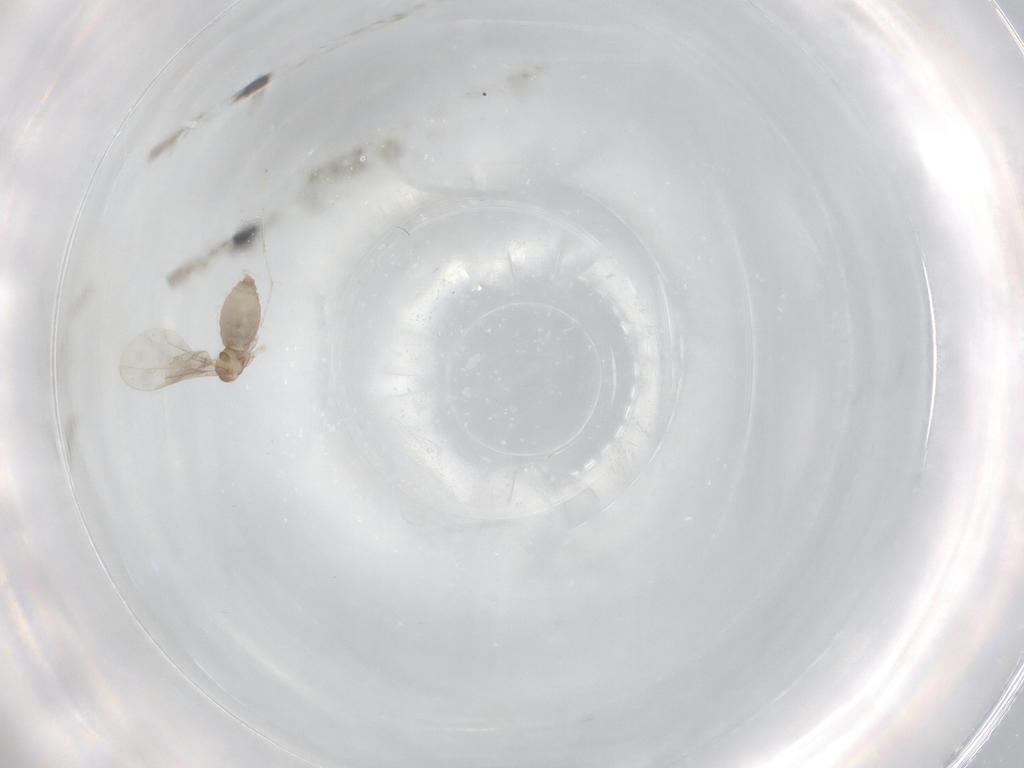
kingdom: Animalia
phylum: Arthropoda
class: Insecta
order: Diptera
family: Cecidomyiidae
